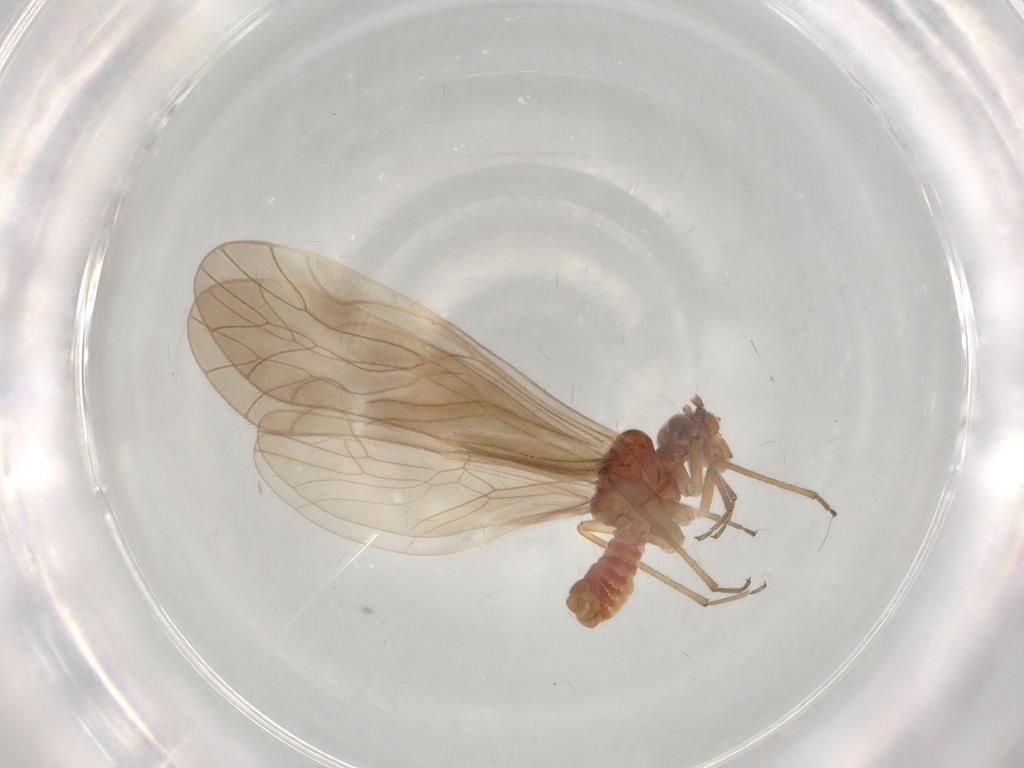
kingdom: Animalia
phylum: Arthropoda
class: Insecta
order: Psocodea
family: Caeciliusidae
